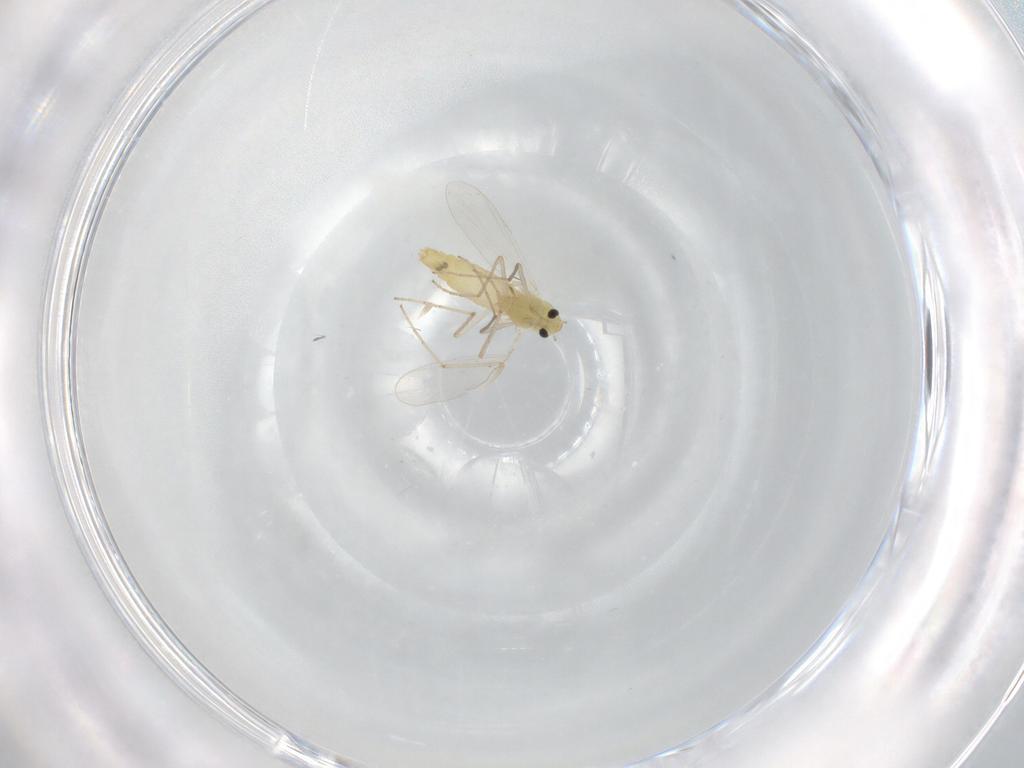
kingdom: Animalia
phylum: Arthropoda
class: Insecta
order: Diptera
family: Chironomidae
